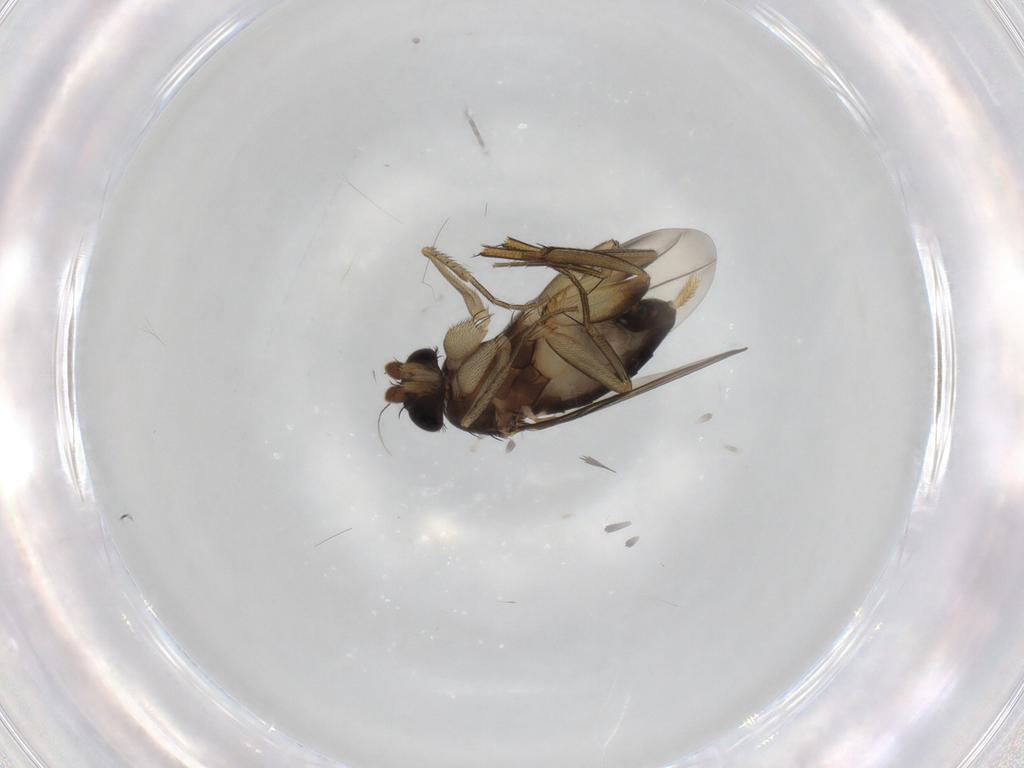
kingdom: Animalia
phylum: Arthropoda
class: Insecta
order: Diptera
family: Phoridae
